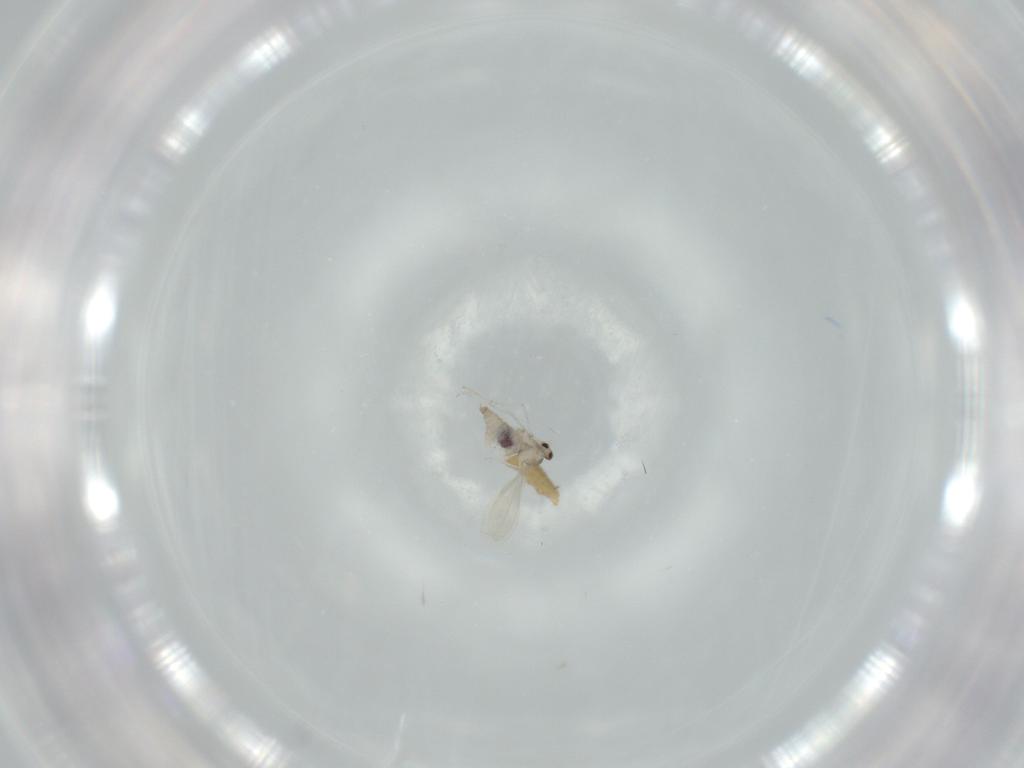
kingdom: Animalia
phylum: Arthropoda
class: Insecta
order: Diptera
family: Cecidomyiidae
